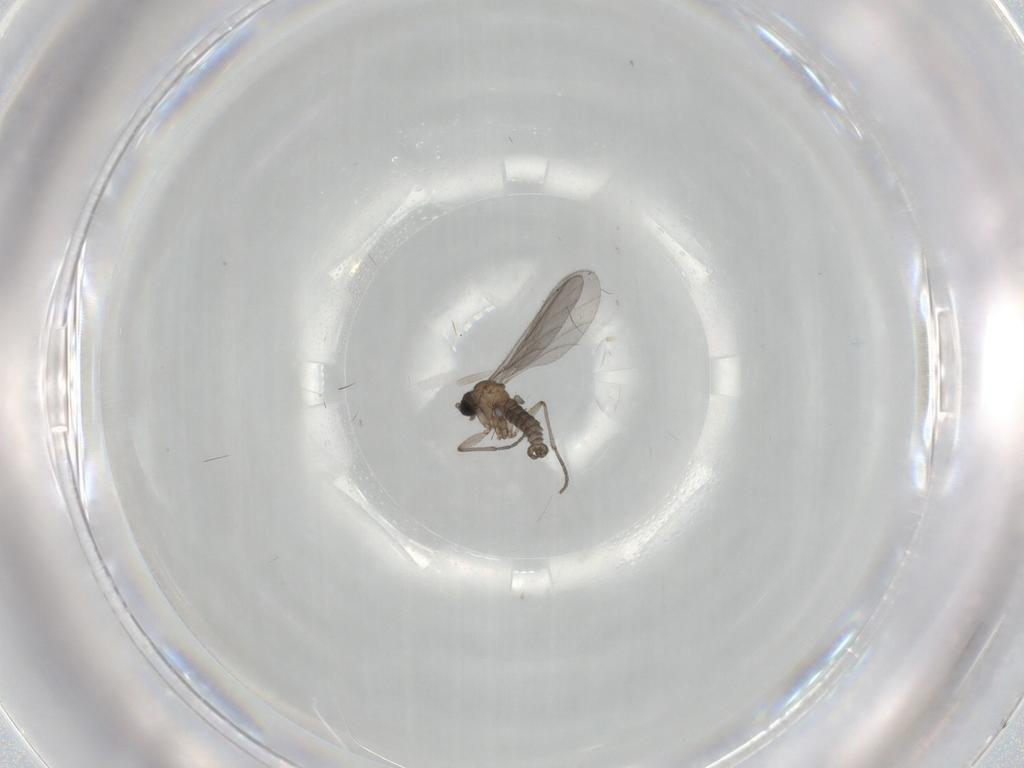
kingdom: Animalia
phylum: Arthropoda
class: Insecta
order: Diptera
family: Sciaridae
